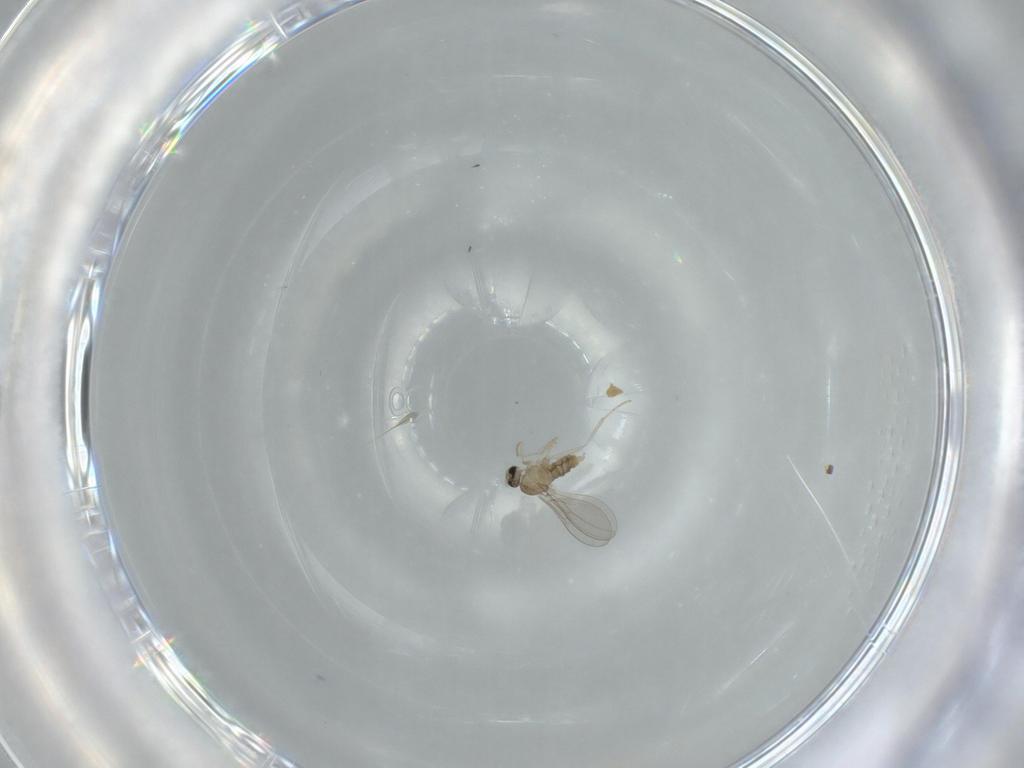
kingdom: Animalia
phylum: Arthropoda
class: Insecta
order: Diptera
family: Cecidomyiidae
